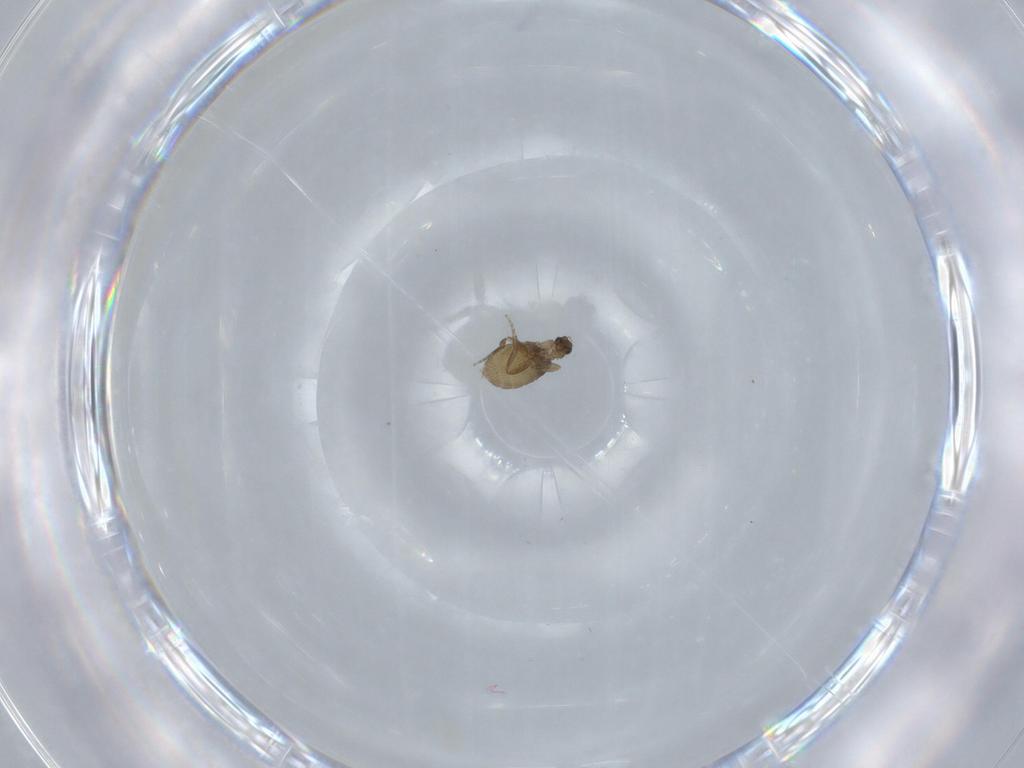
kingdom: Animalia
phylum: Arthropoda
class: Insecta
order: Diptera
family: Phoridae
